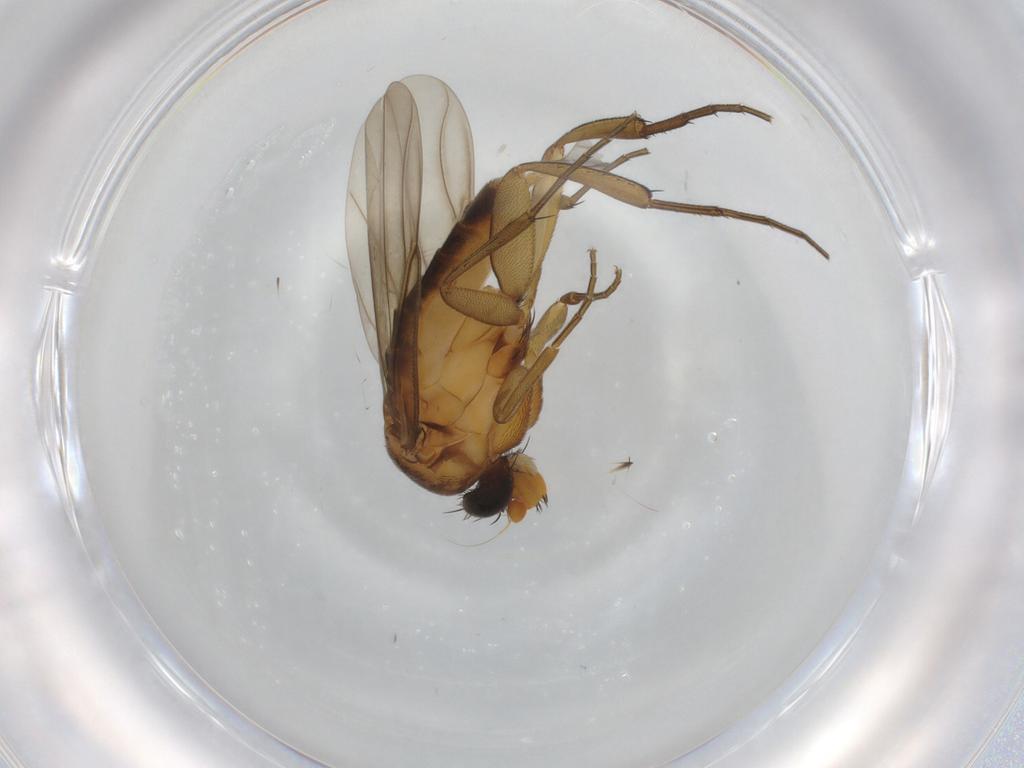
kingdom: Animalia
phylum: Arthropoda
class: Insecta
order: Diptera
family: Phoridae
